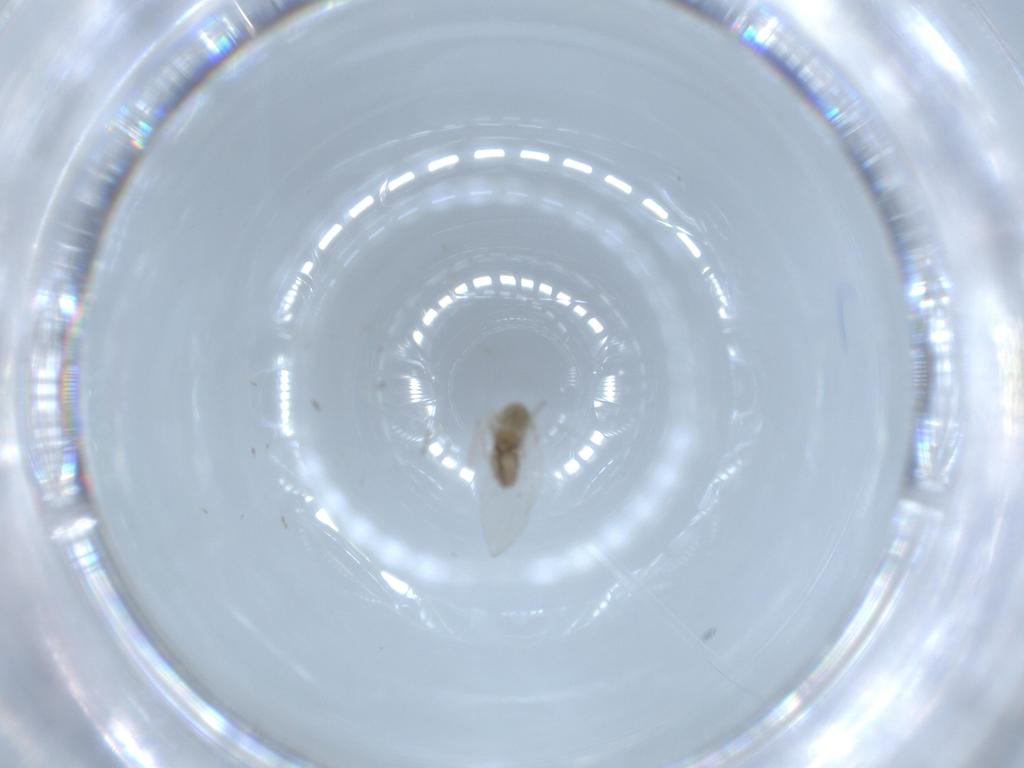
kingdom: Animalia
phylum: Arthropoda
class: Insecta
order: Diptera
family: Psychodidae
